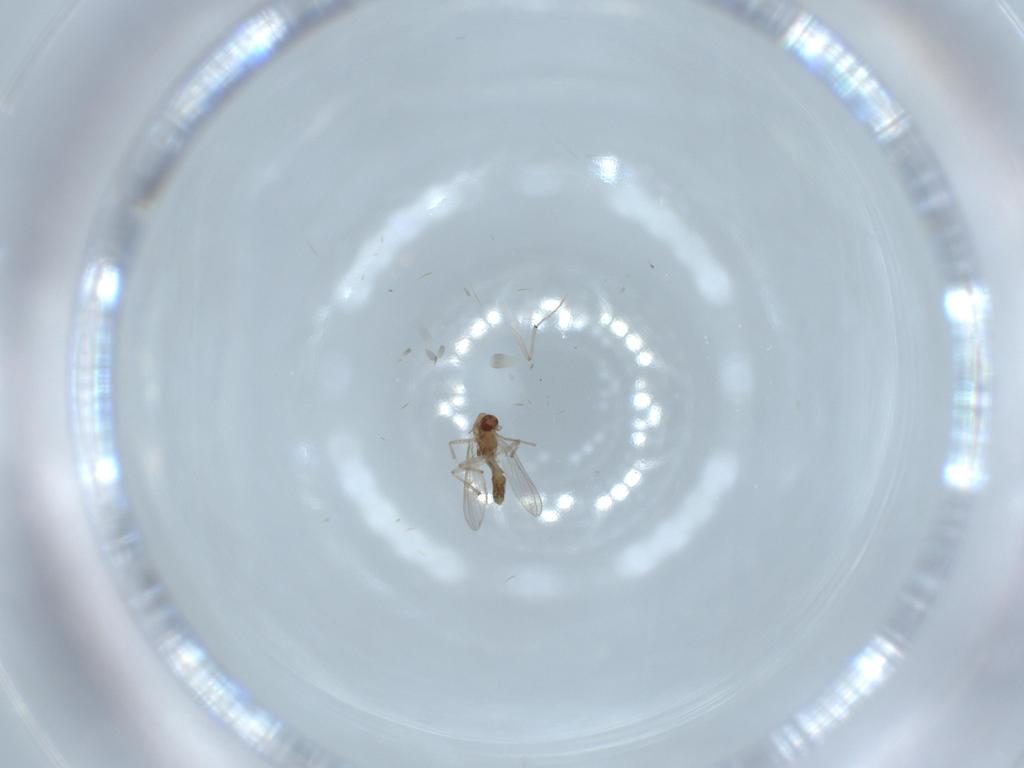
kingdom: Animalia
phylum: Arthropoda
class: Insecta
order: Diptera
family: Chironomidae
